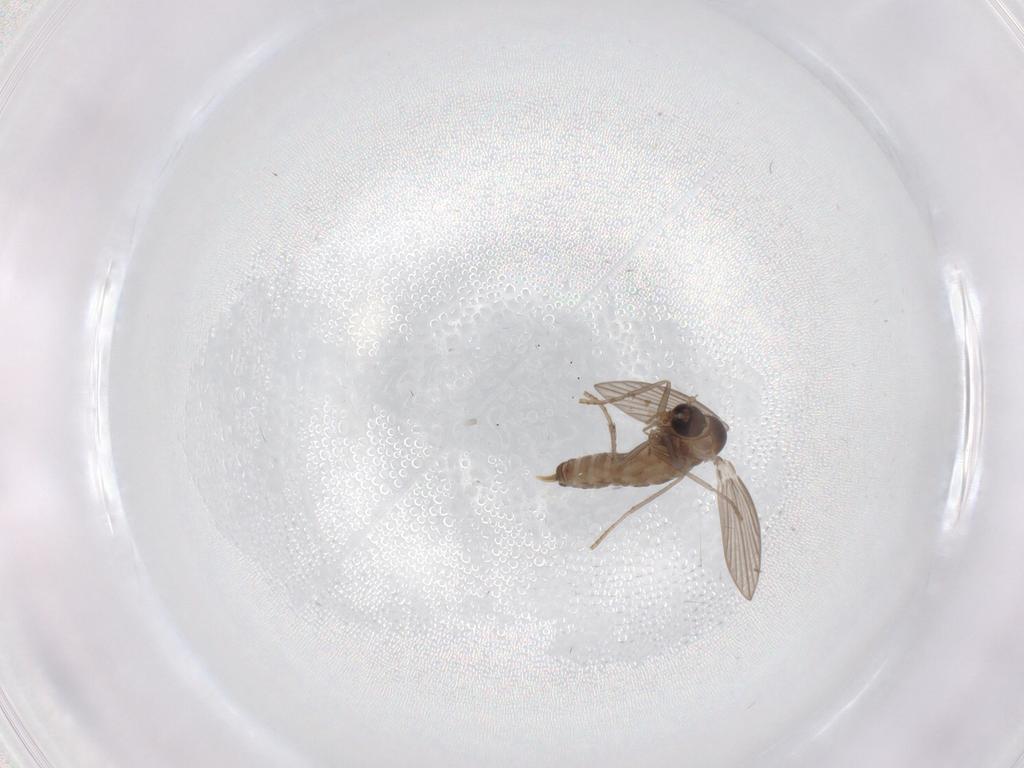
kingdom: Animalia
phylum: Arthropoda
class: Insecta
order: Diptera
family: Psychodidae
